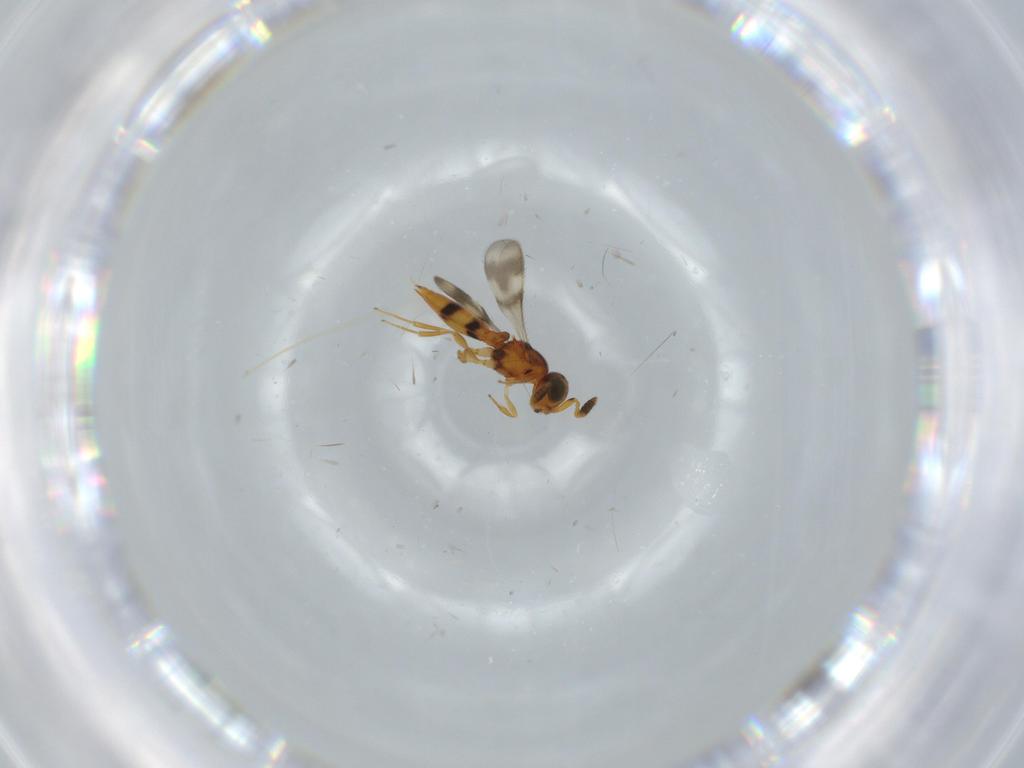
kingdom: Animalia
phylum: Arthropoda
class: Insecta
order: Hymenoptera
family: Scelionidae
